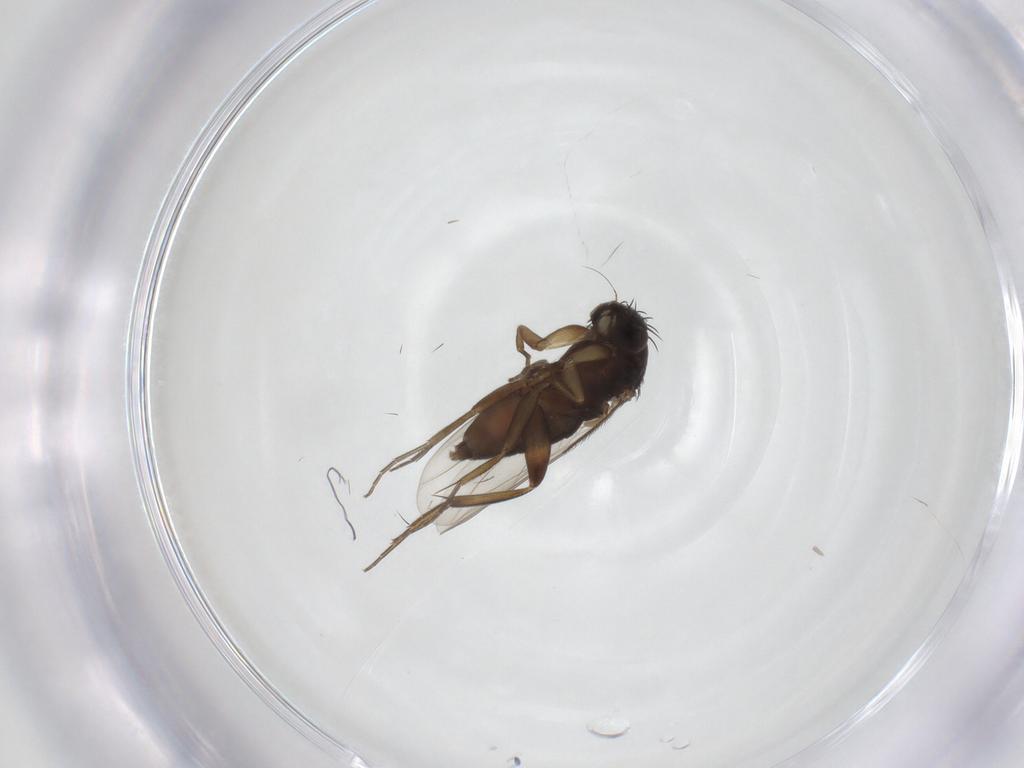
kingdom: Animalia
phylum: Arthropoda
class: Insecta
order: Diptera
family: Phoridae
